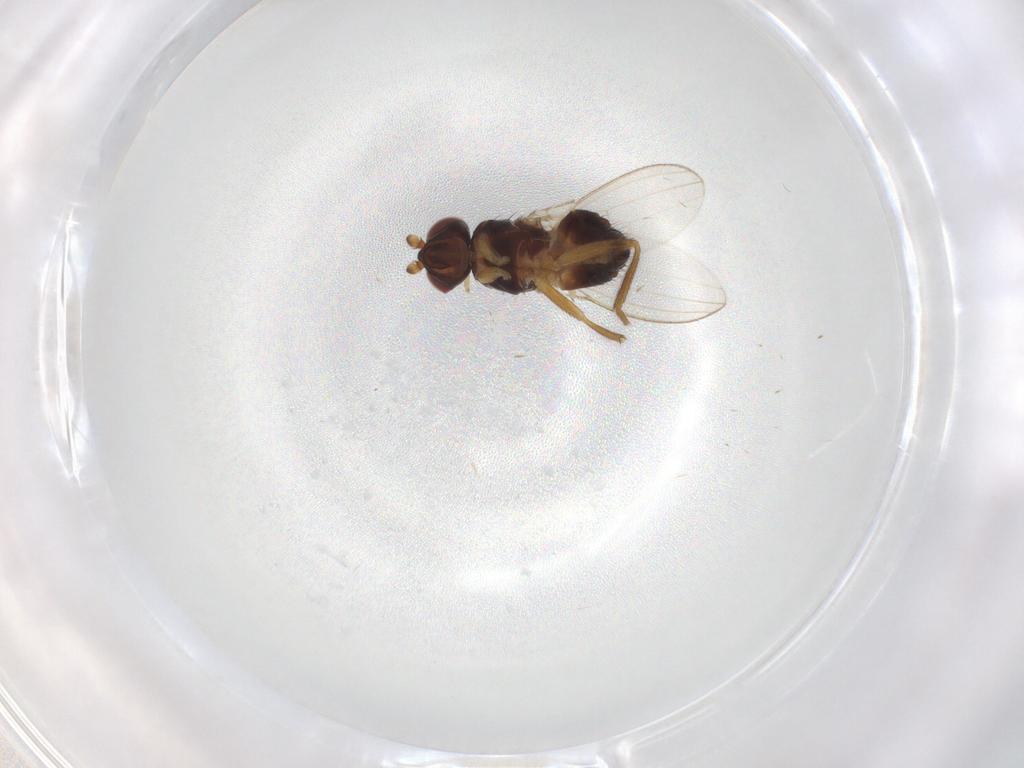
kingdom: Animalia
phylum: Arthropoda
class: Insecta
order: Diptera
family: Cypselosomatidae
